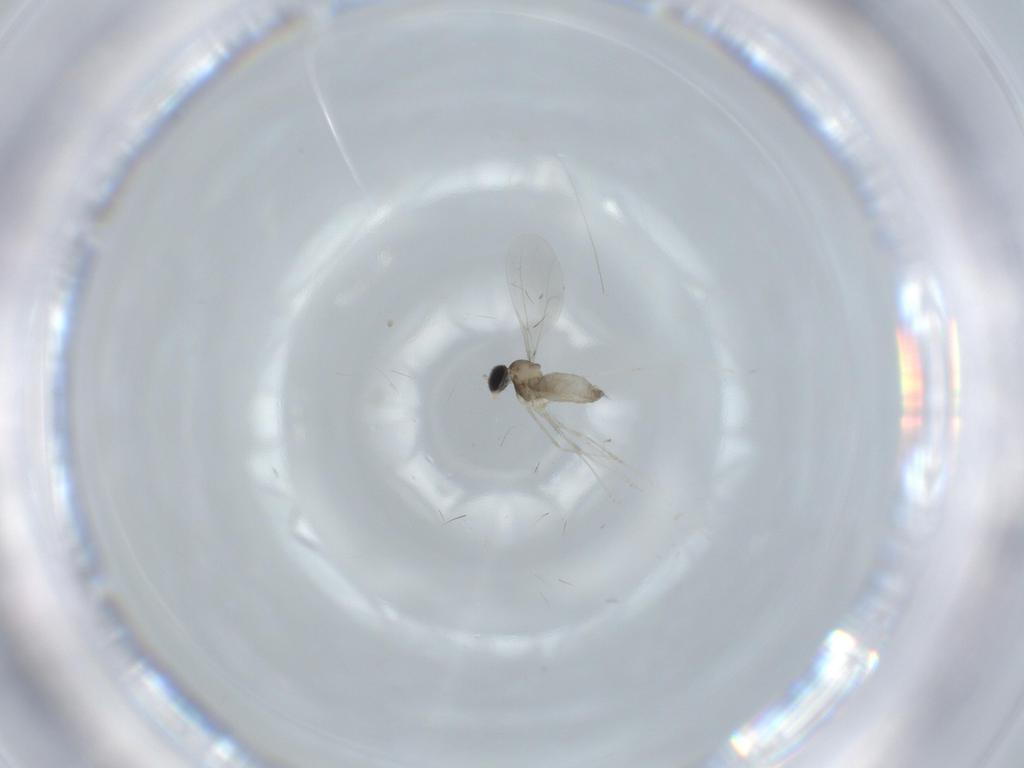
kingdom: Animalia
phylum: Arthropoda
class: Insecta
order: Diptera
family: Cecidomyiidae
